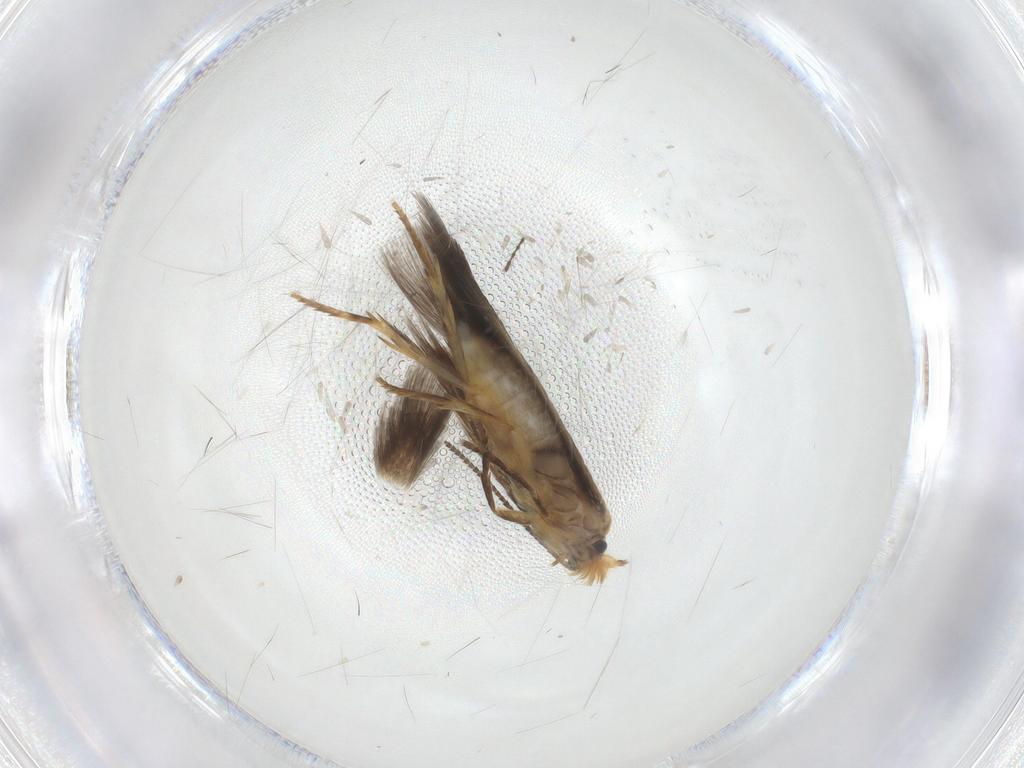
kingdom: Animalia
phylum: Arthropoda
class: Insecta
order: Lepidoptera
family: Nepticulidae
